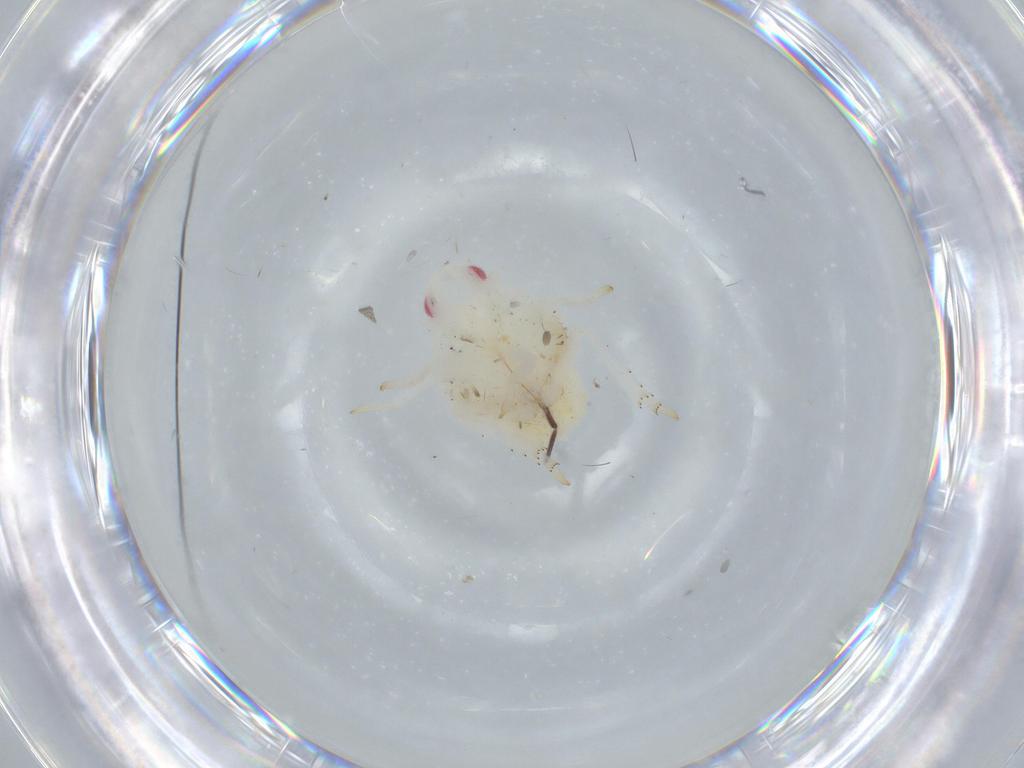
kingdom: Animalia
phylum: Arthropoda
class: Insecta
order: Hemiptera
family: Flatidae
